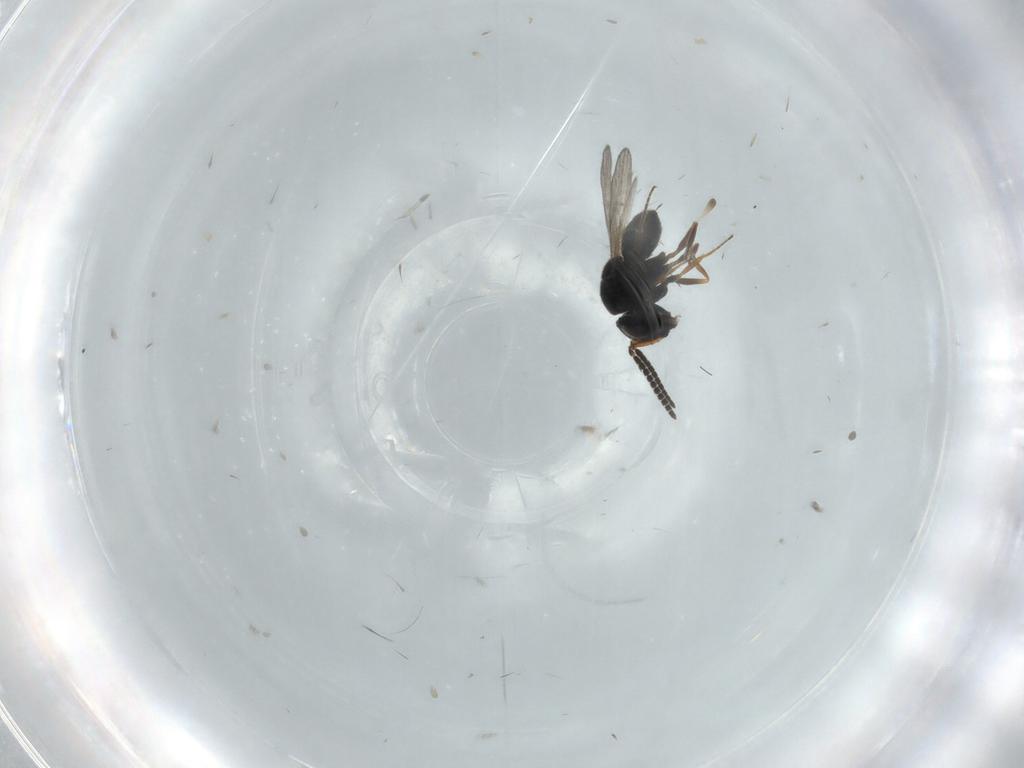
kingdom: Animalia
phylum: Arthropoda
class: Insecta
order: Hymenoptera
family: Scelionidae
